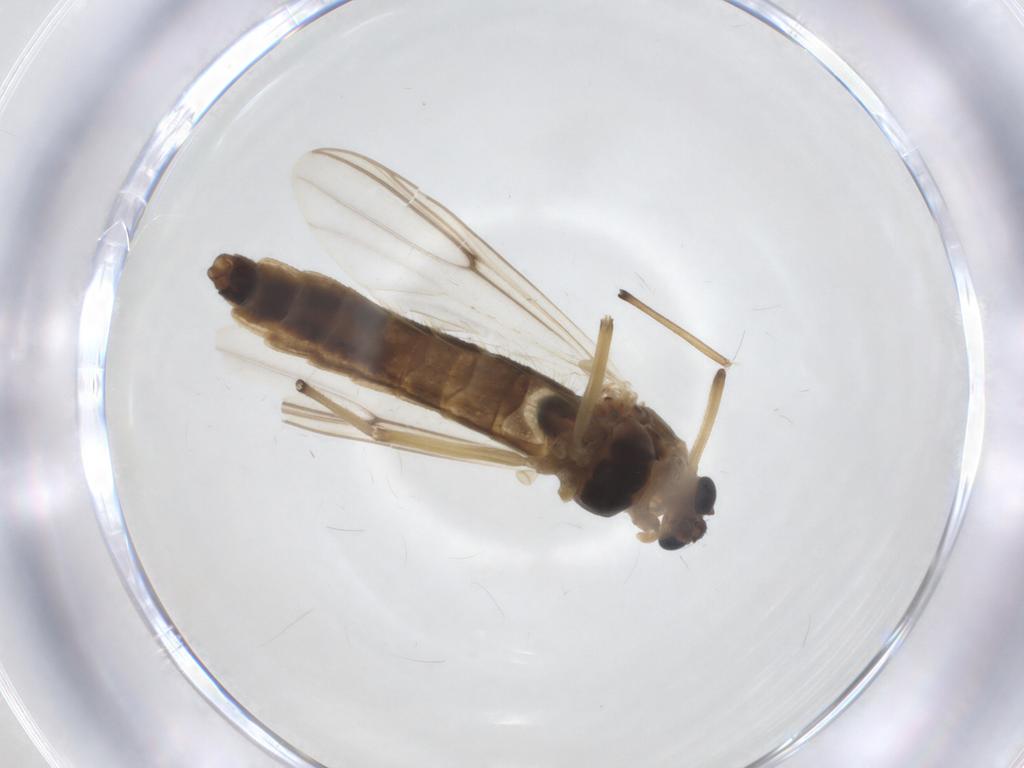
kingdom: Animalia
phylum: Arthropoda
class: Insecta
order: Diptera
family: Chironomidae
